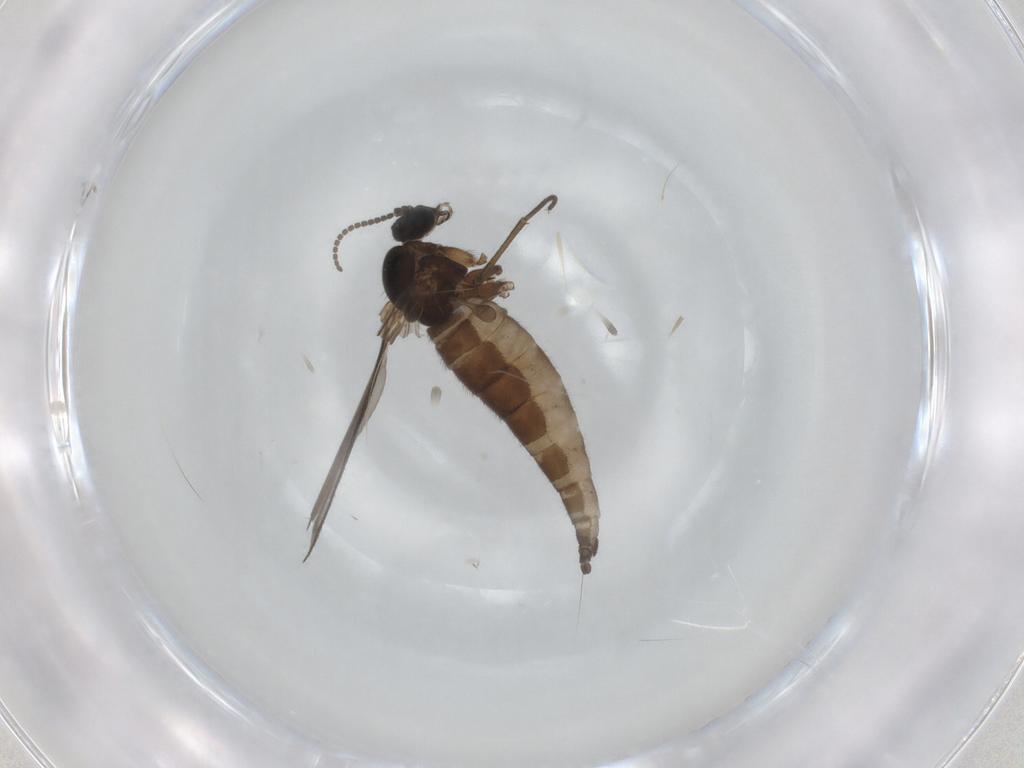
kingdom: Animalia
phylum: Arthropoda
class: Insecta
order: Diptera
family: Sciaridae
